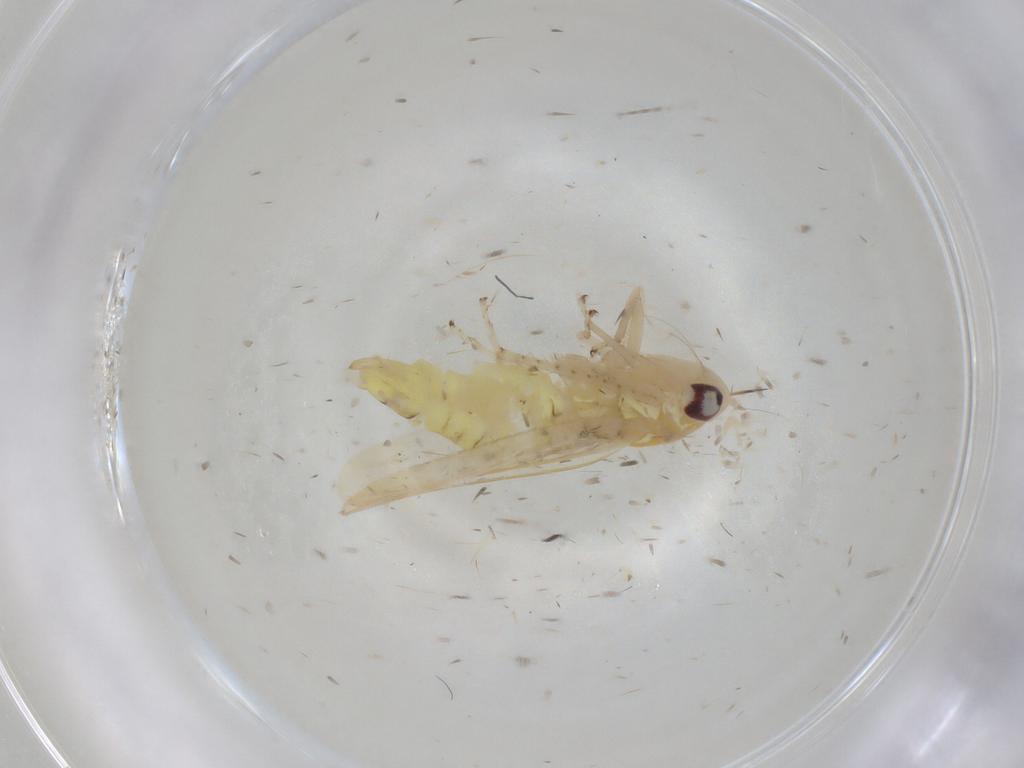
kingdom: Animalia
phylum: Arthropoda
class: Insecta
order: Hemiptera
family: Cicadellidae
